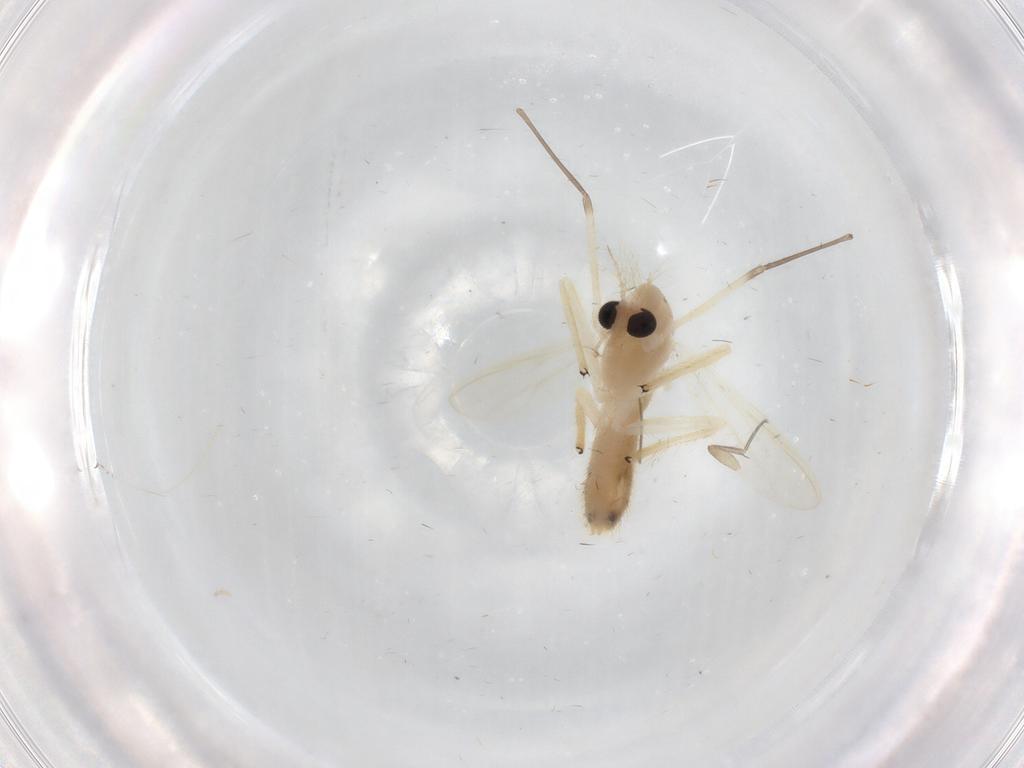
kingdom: Animalia
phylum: Arthropoda
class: Insecta
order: Diptera
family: Chironomidae
